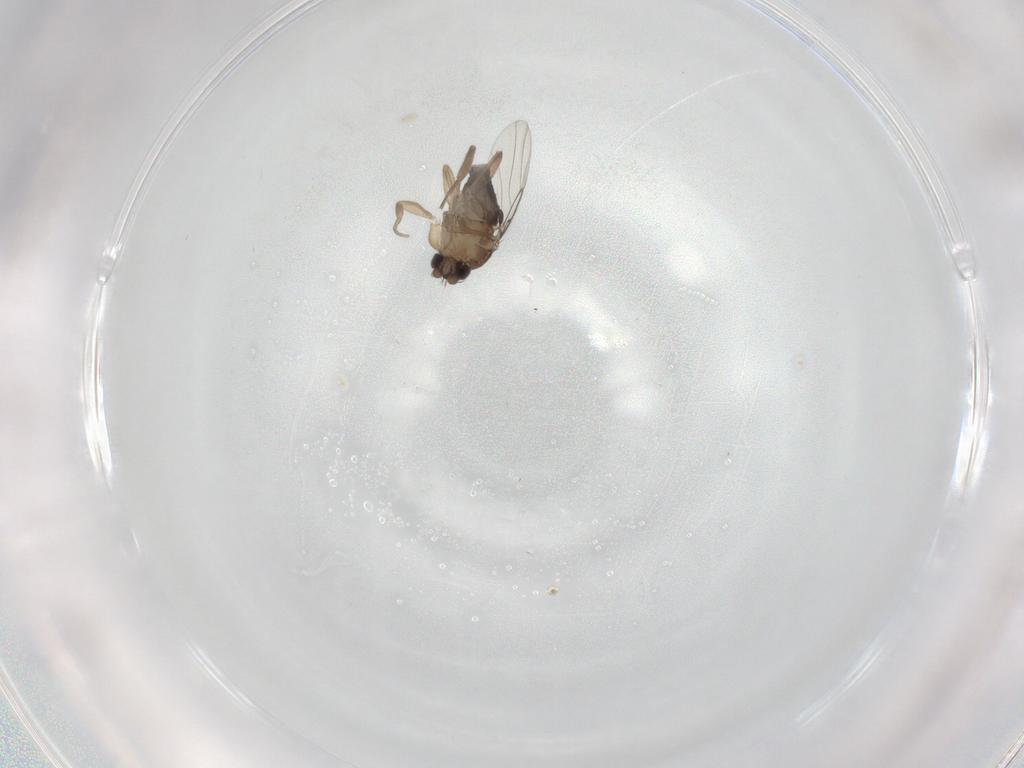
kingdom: Animalia
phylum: Arthropoda
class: Insecta
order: Diptera
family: Phoridae
